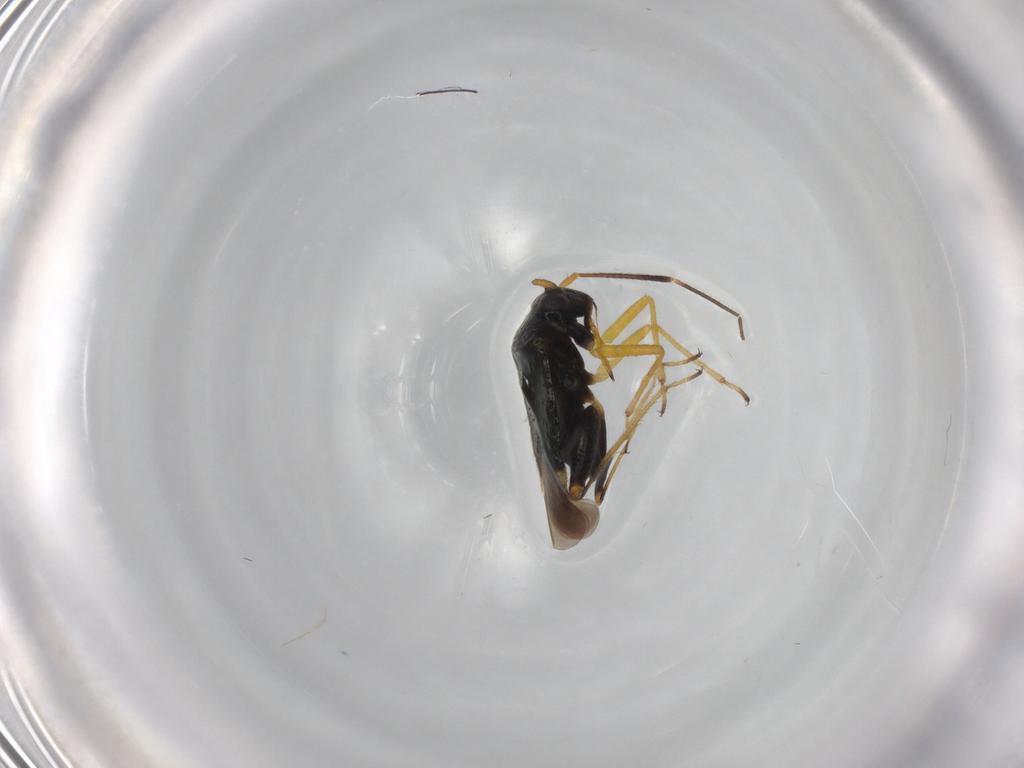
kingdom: Animalia
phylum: Arthropoda
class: Insecta
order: Hemiptera
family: Miridae
